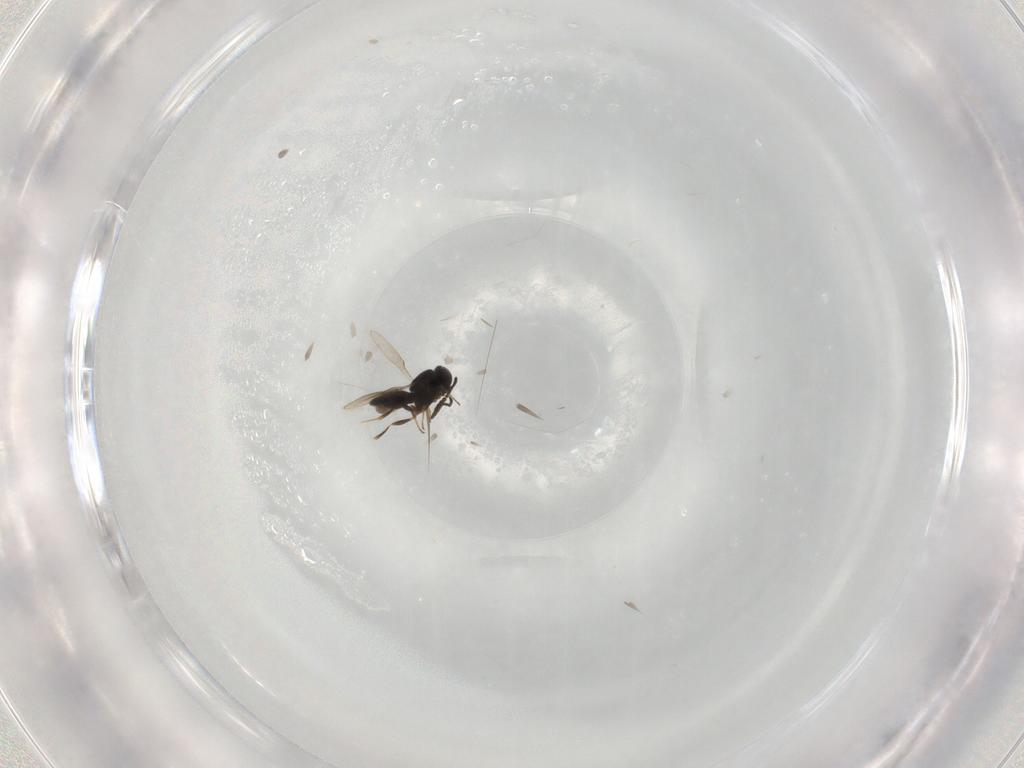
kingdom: Animalia
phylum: Arthropoda
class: Insecta
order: Hymenoptera
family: Scelionidae
